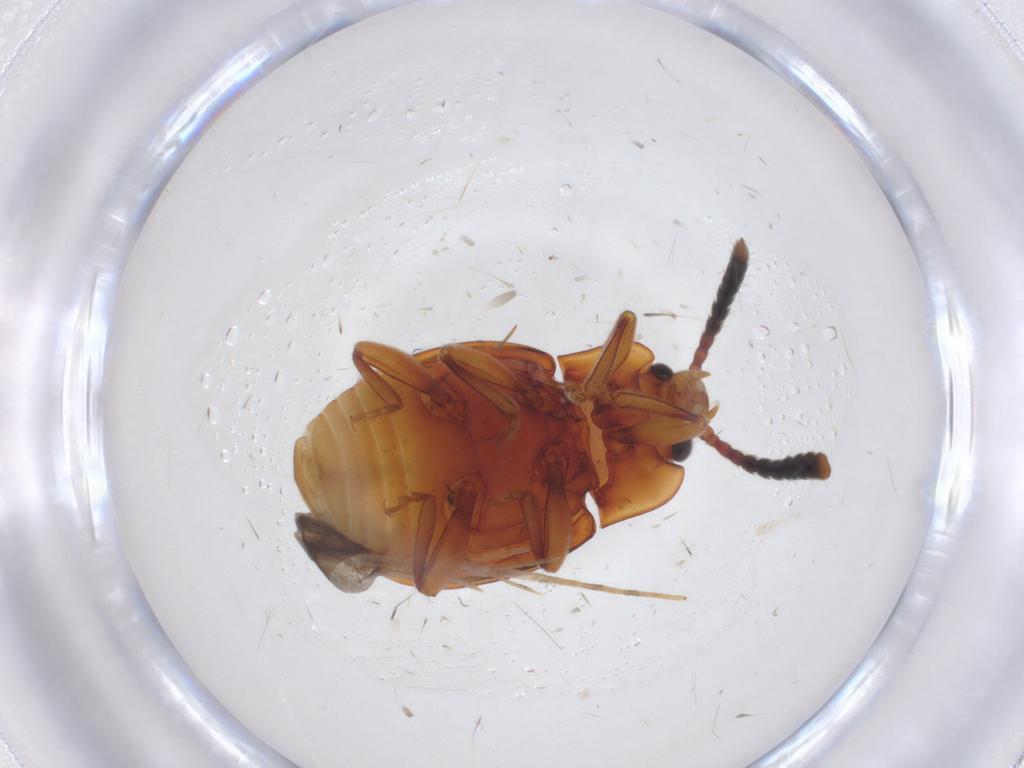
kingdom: Animalia
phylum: Arthropoda
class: Insecta
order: Coleoptera
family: Endomychidae
